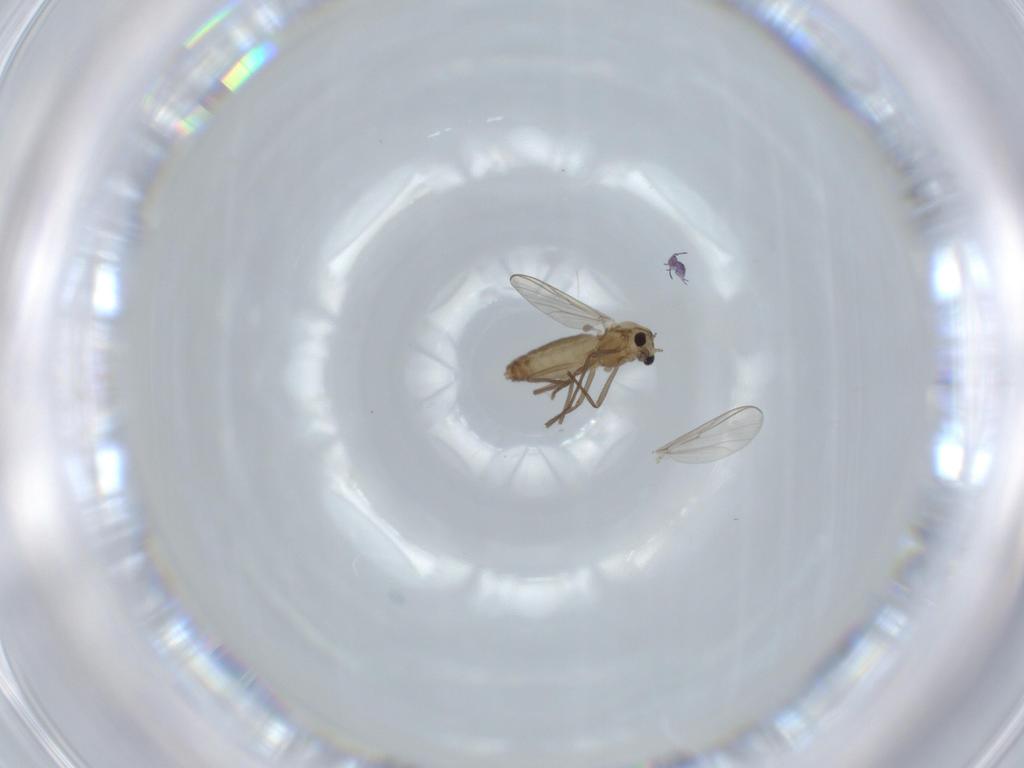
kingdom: Animalia
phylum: Arthropoda
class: Insecta
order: Diptera
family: Chironomidae
